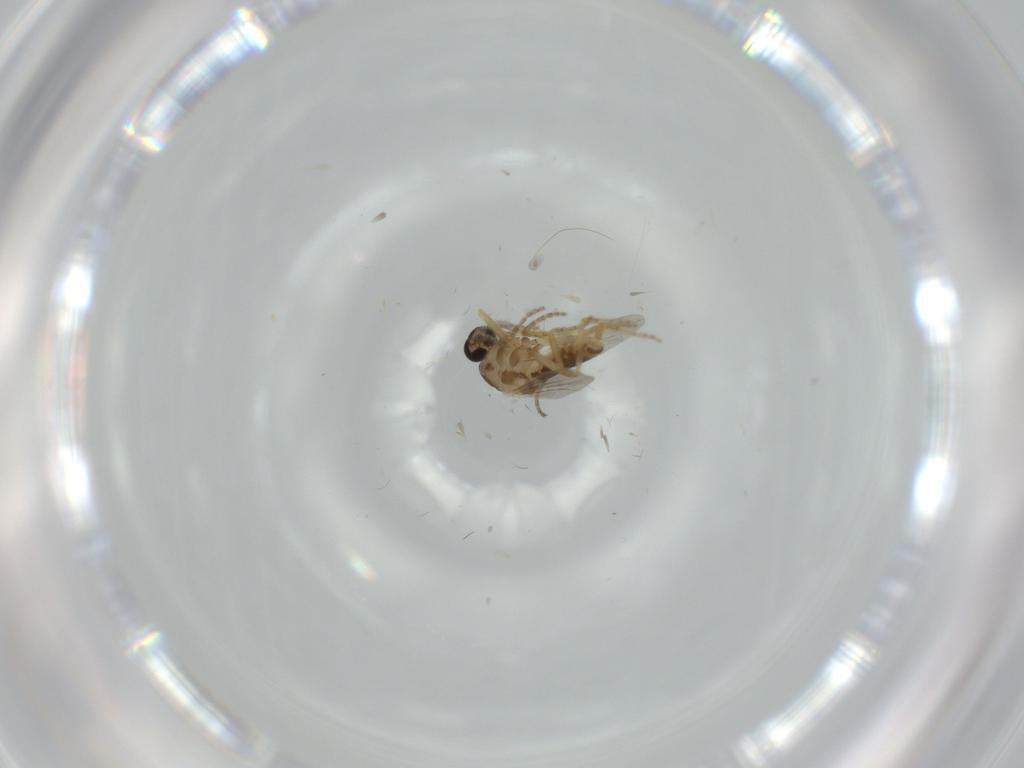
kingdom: Animalia
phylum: Arthropoda
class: Insecta
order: Diptera
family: Ceratopogonidae
